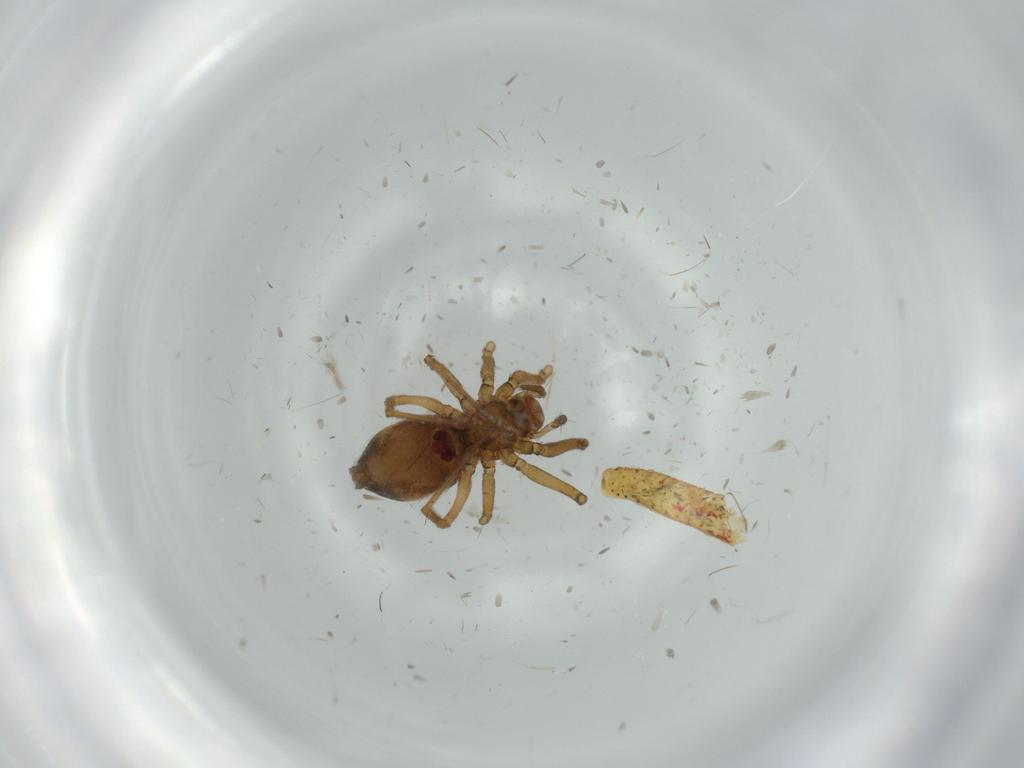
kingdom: Animalia
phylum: Arthropoda
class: Arachnida
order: Araneae
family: Linyphiidae
